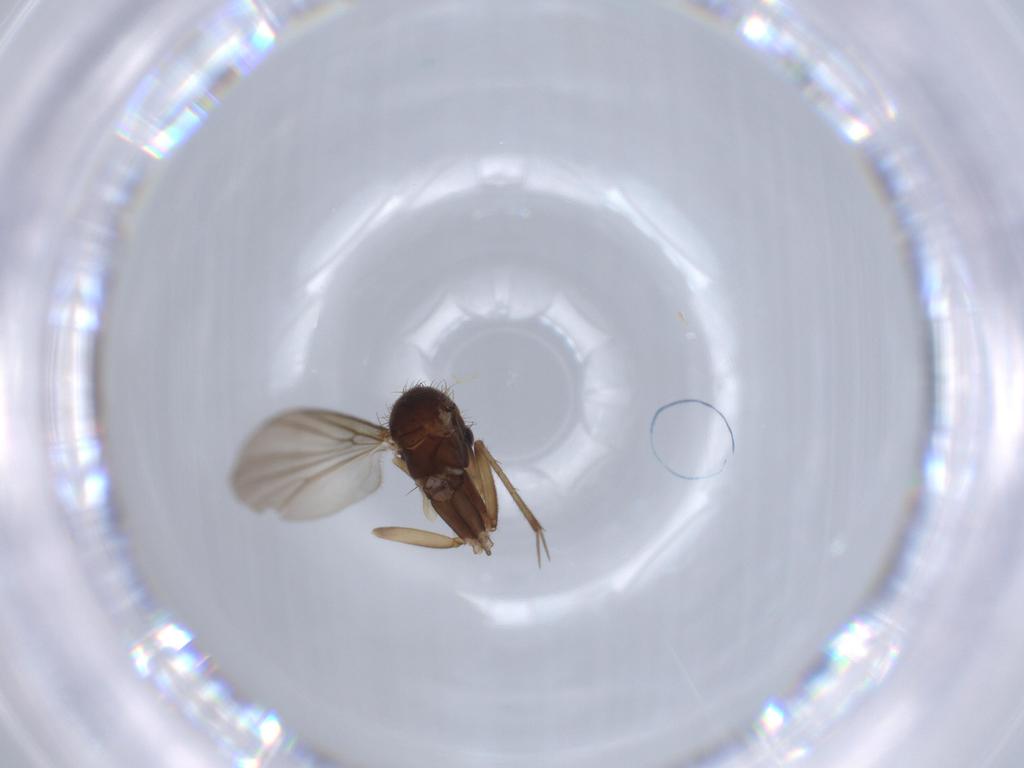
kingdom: Animalia
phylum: Arthropoda
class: Insecta
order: Diptera
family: Mycetophilidae
